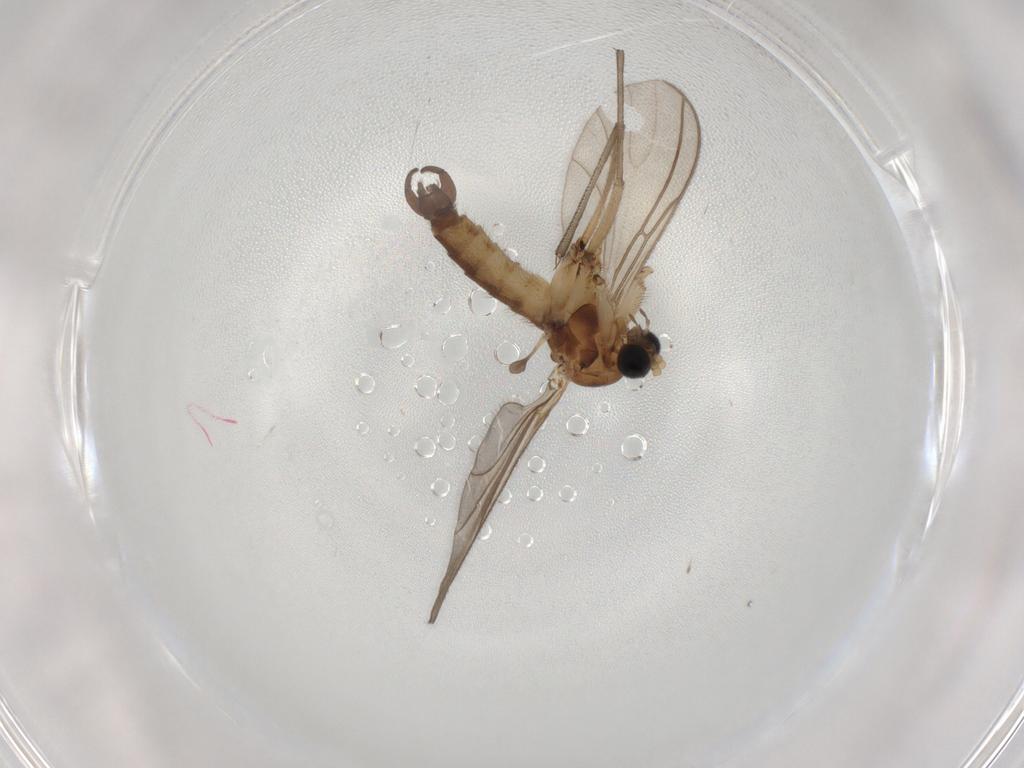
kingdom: Animalia
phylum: Arthropoda
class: Insecta
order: Diptera
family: Sciaridae
